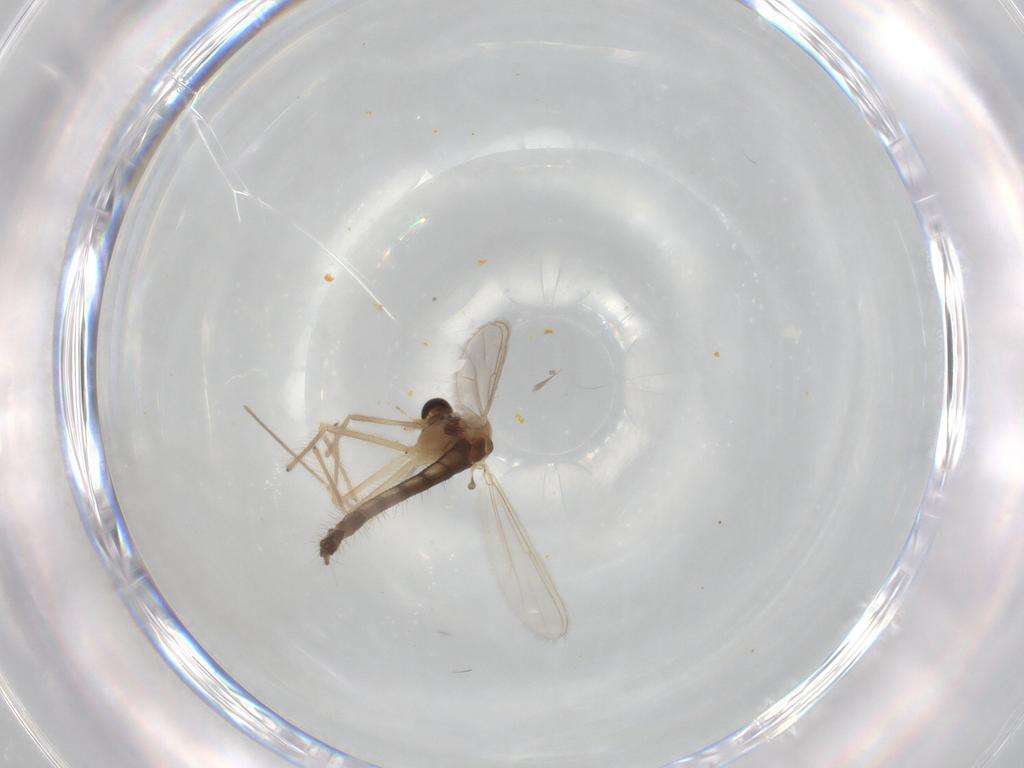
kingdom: Animalia
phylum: Arthropoda
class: Insecta
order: Diptera
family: Chironomidae
